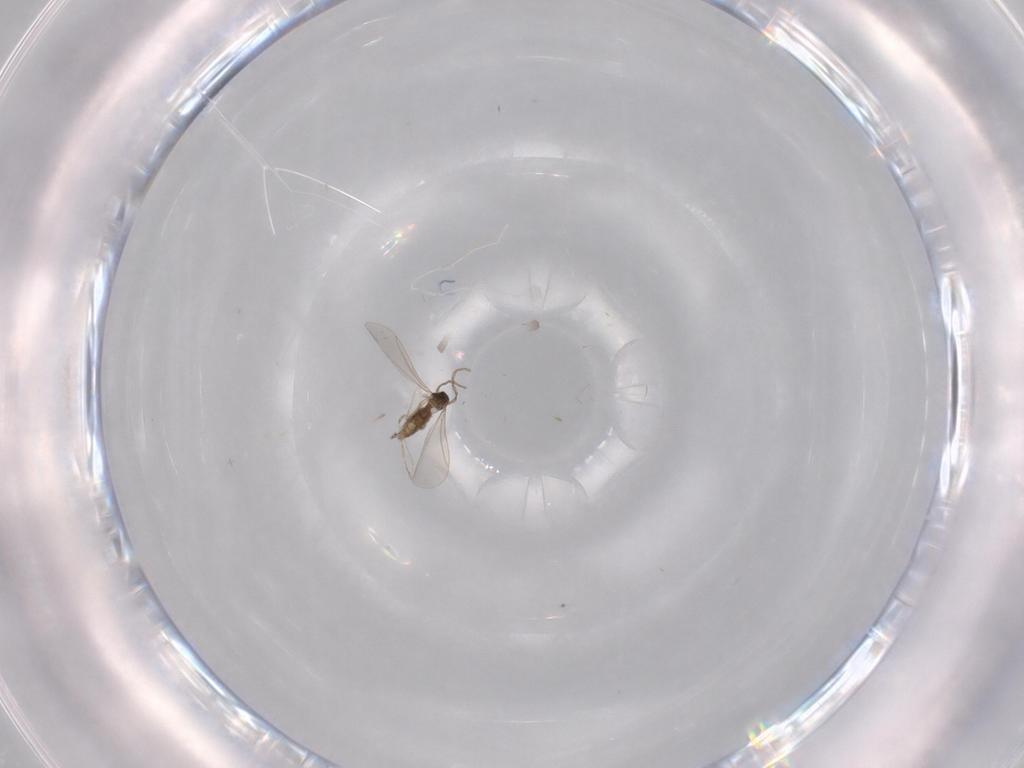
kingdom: Animalia
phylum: Arthropoda
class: Insecta
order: Diptera
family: Cecidomyiidae
